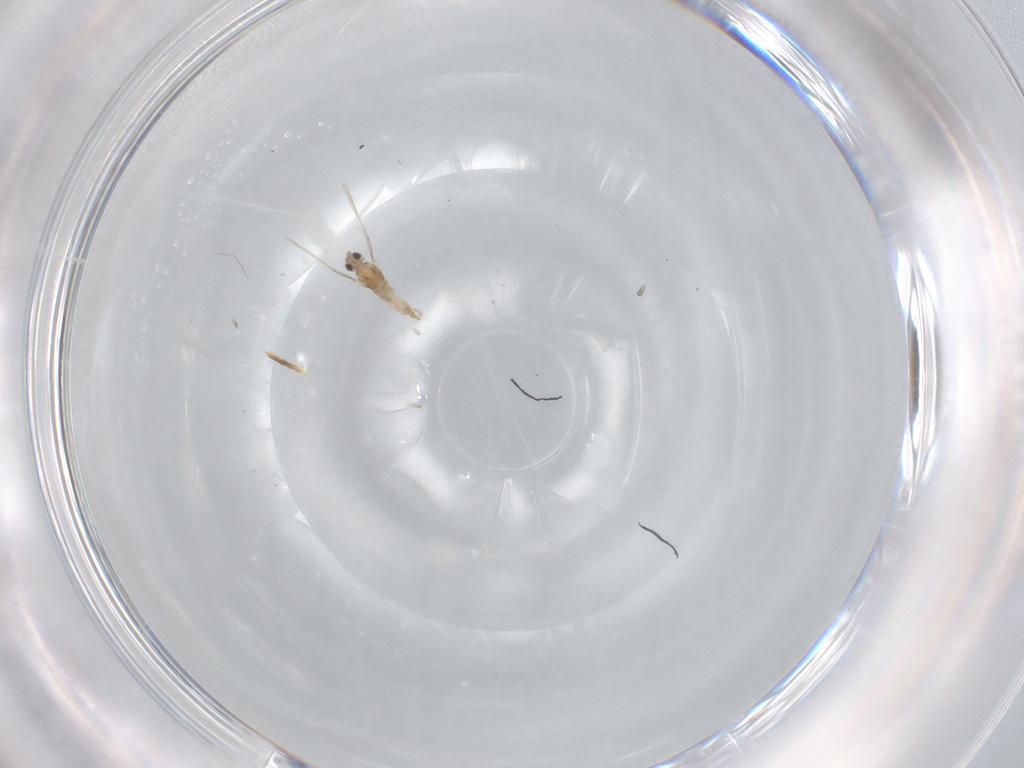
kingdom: Animalia
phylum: Arthropoda
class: Insecta
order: Diptera
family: Cecidomyiidae
